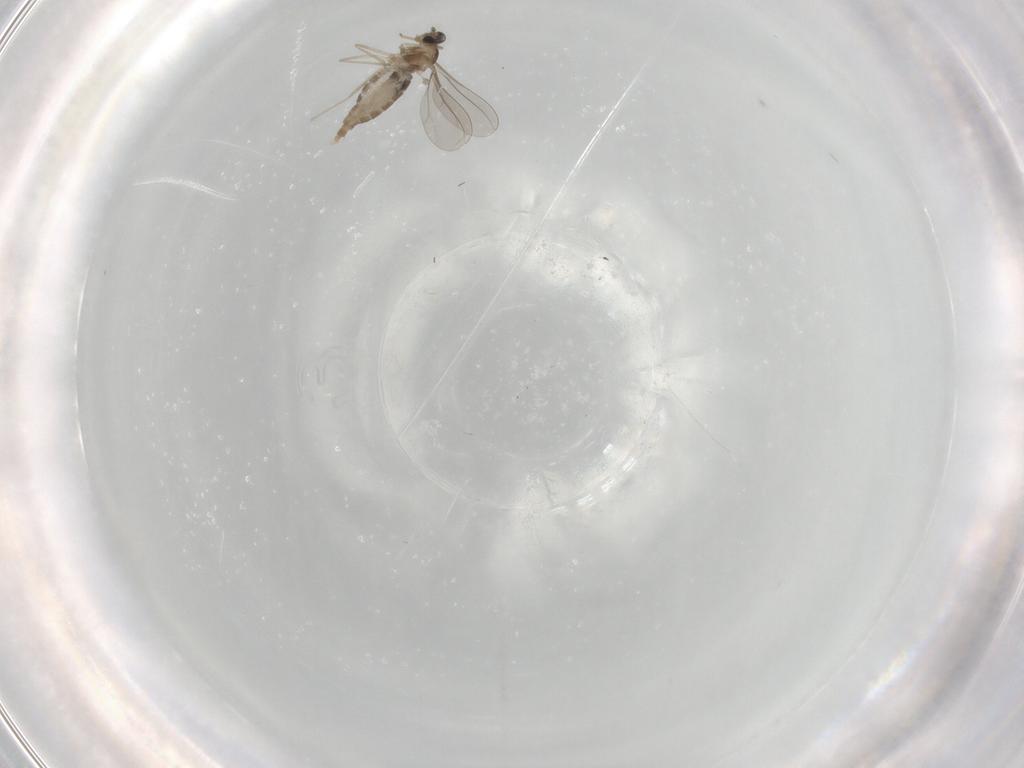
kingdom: Animalia
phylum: Arthropoda
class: Insecta
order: Diptera
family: Cecidomyiidae
